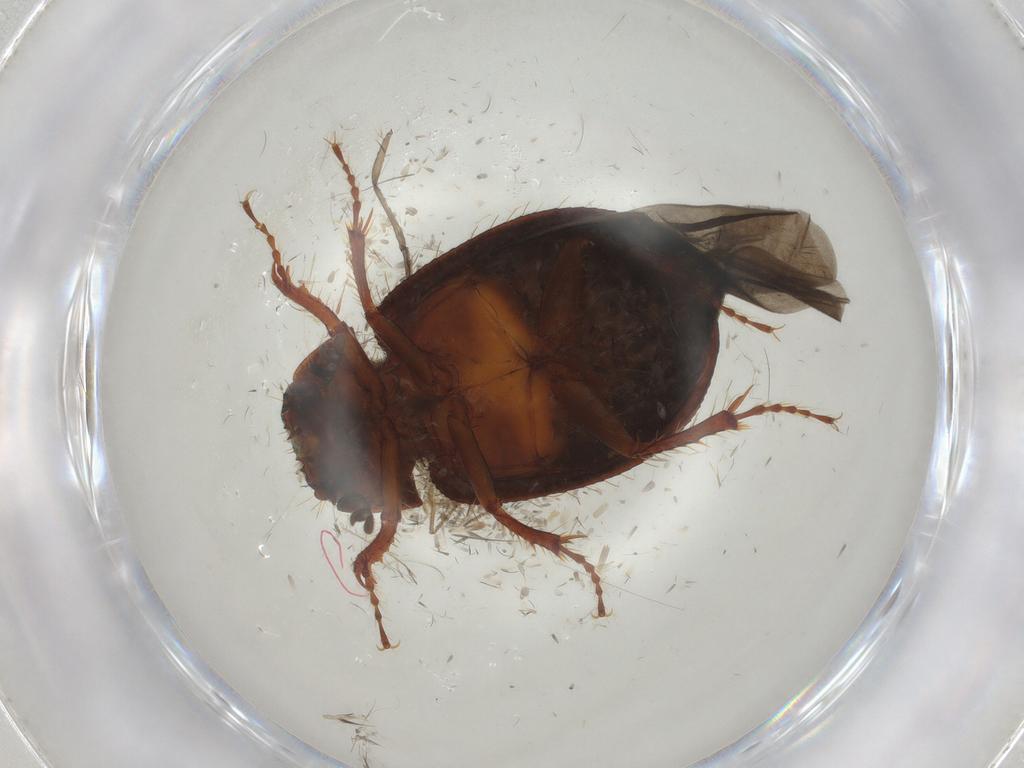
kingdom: Animalia
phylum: Arthropoda
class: Insecta
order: Coleoptera
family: Hybosoridae
